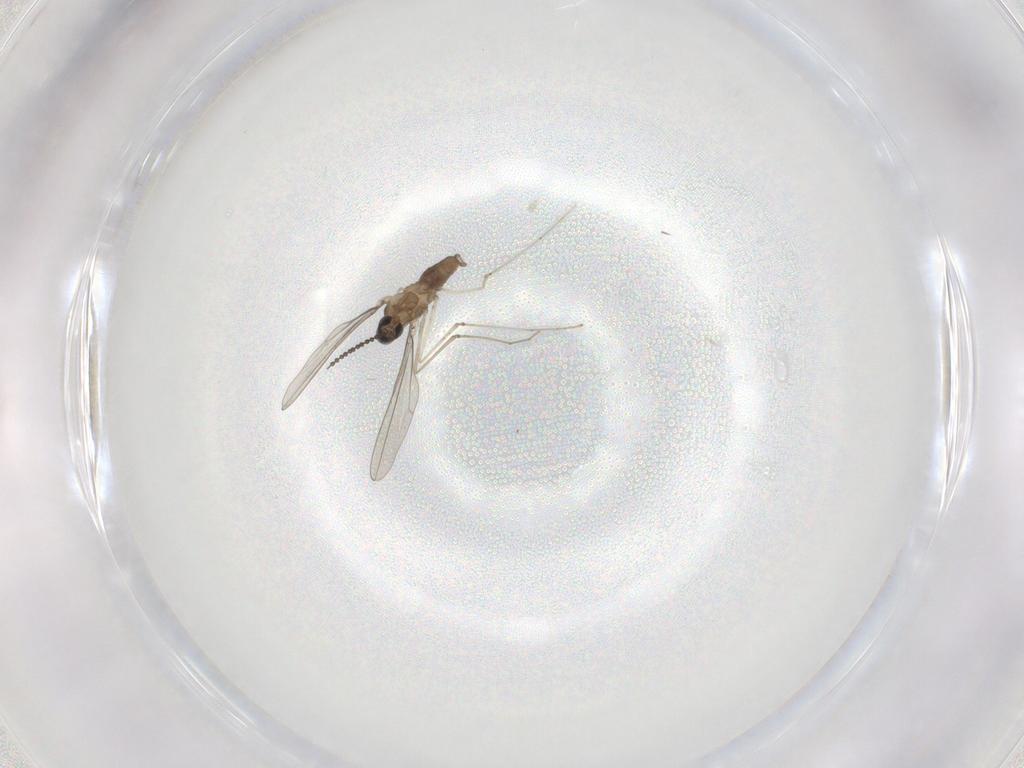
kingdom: Animalia
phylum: Arthropoda
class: Insecta
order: Diptera
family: Cecidomyiidae
